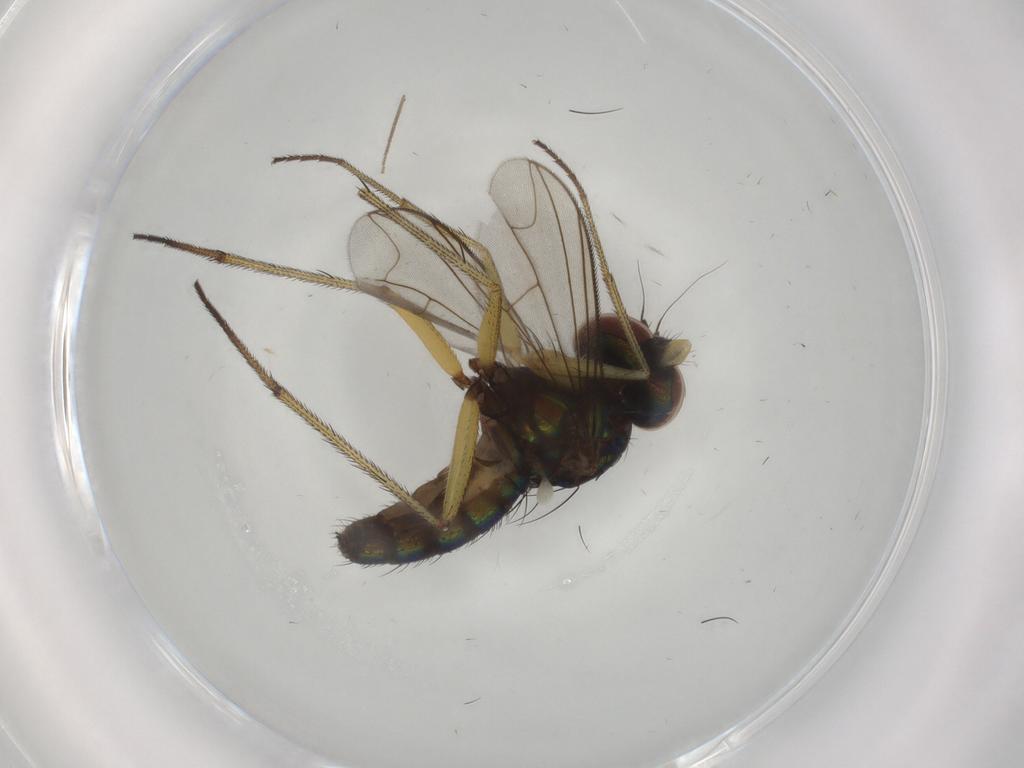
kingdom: Animalia
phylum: Arthropoda
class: Insecta
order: Diptera
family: Dolichopodidae
